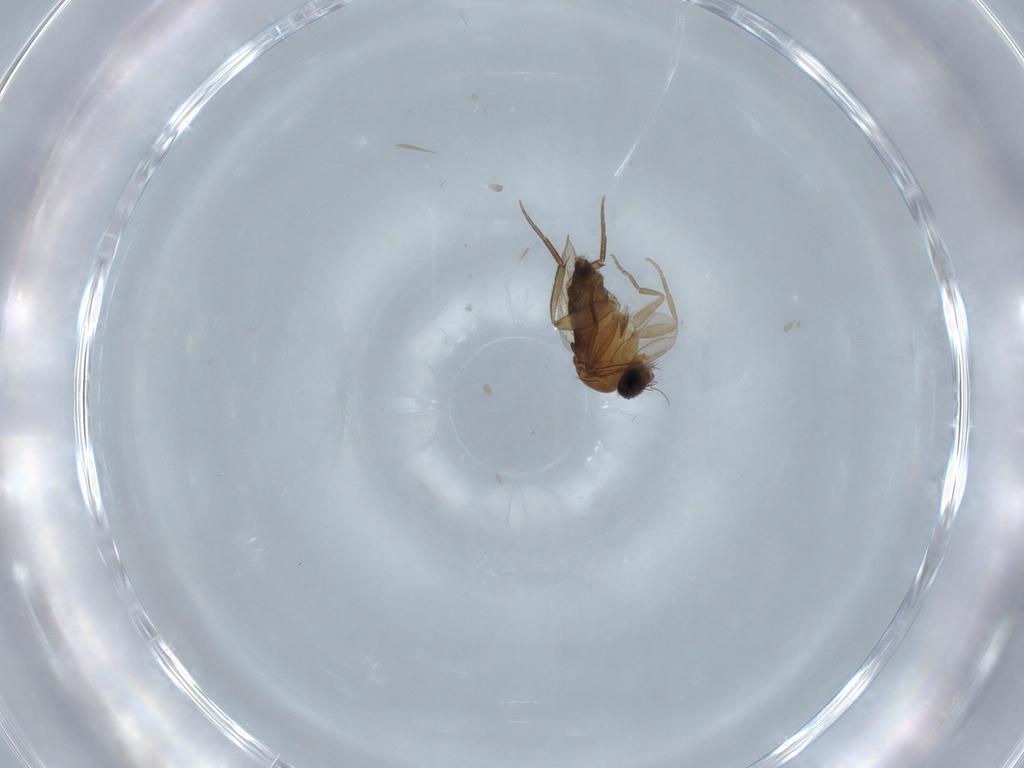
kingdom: Animalia
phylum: Arthropoda
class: Insecta
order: Diptera
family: Phoridae
